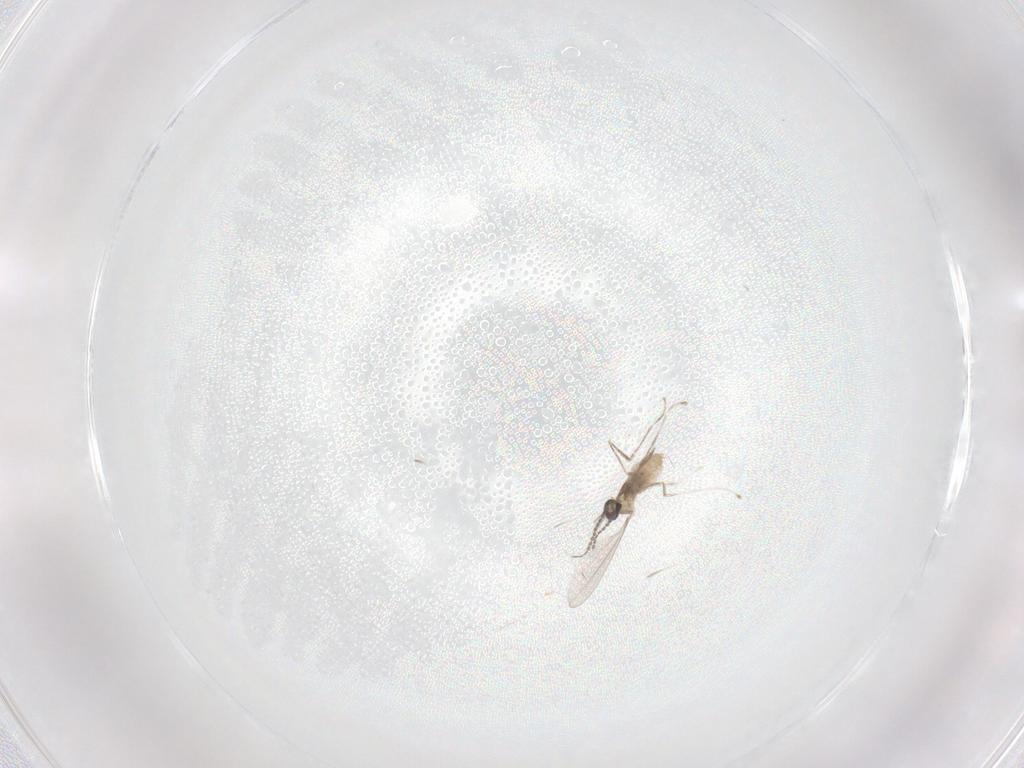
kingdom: Animalia
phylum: Arthropoda
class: Insecta
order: Diptera
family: Cecidomyiidae
